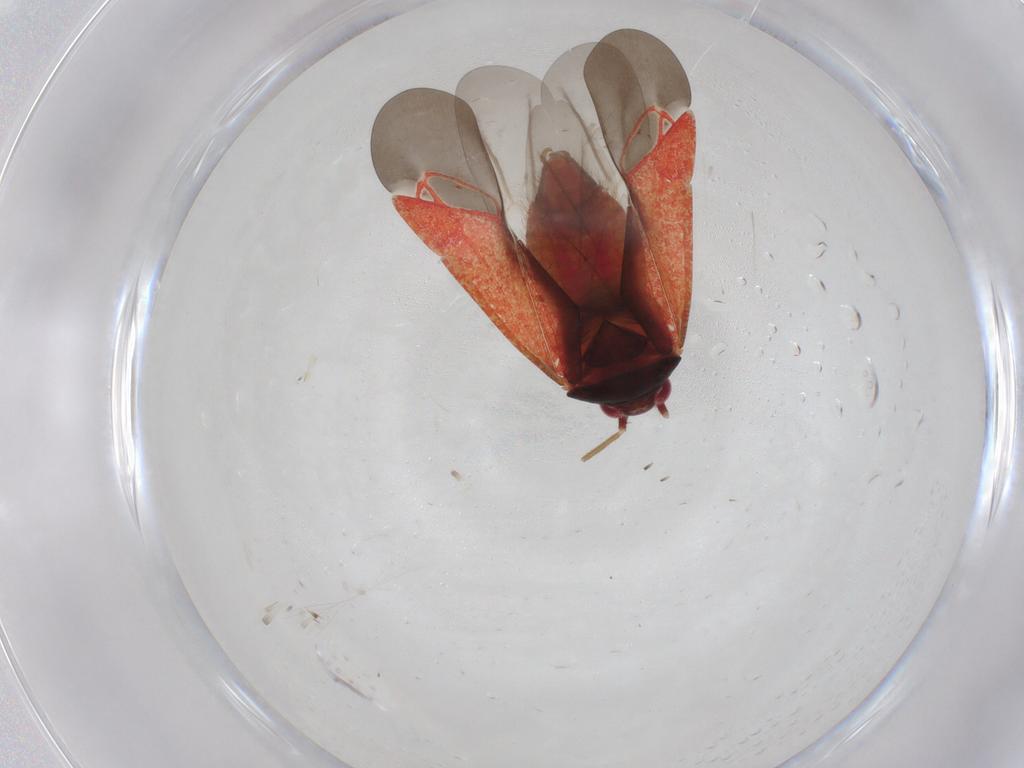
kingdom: Animalia
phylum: Arthropoda
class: Insecta
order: Hemiptera
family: Miridae
